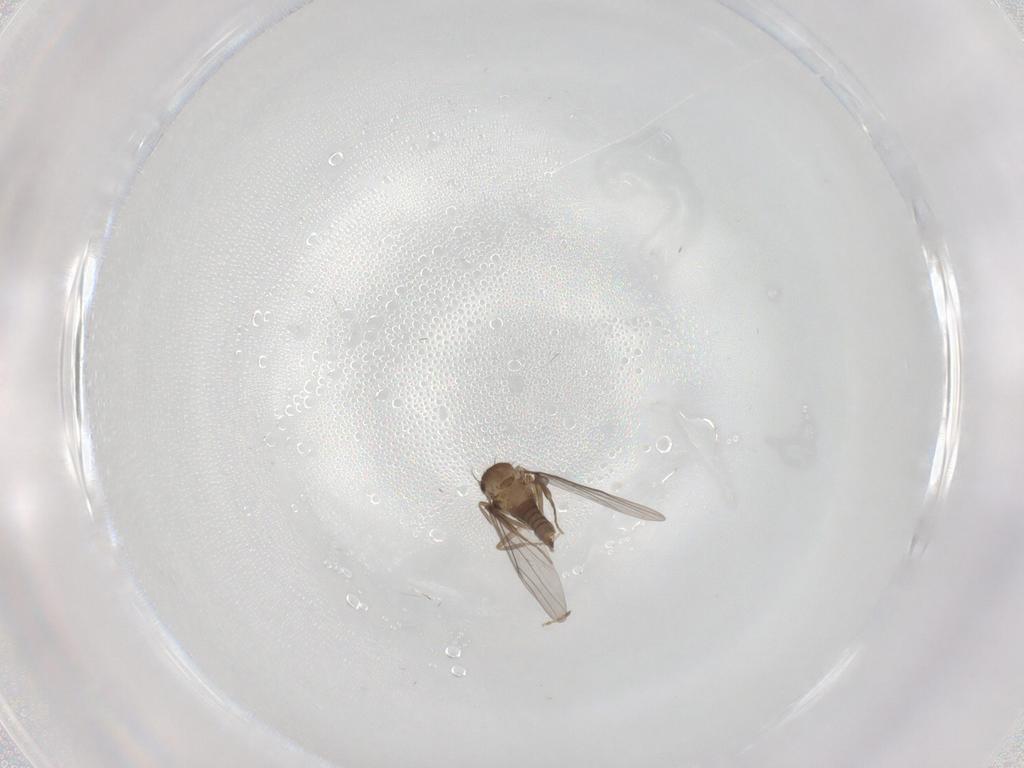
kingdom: Animalia
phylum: Arthropoda
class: Insecta
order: Diptera
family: Ceratopogonidae
